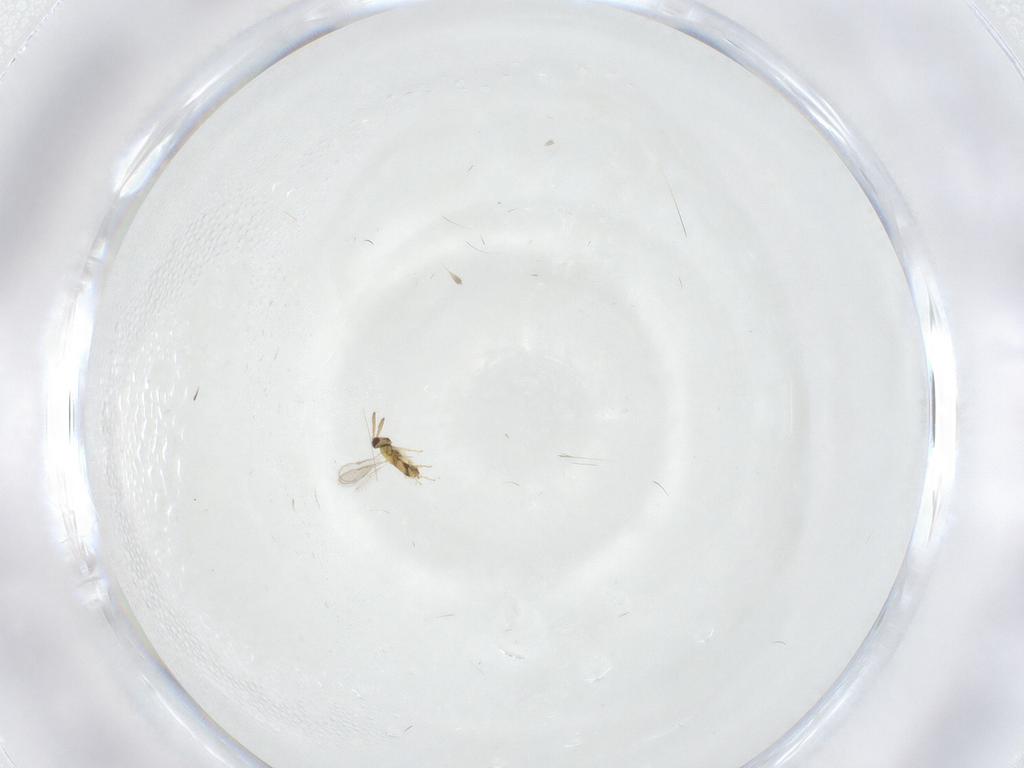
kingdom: Animalia
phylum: Arthropoda
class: Insecta
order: Hymenoptera
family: Aphelinidae
